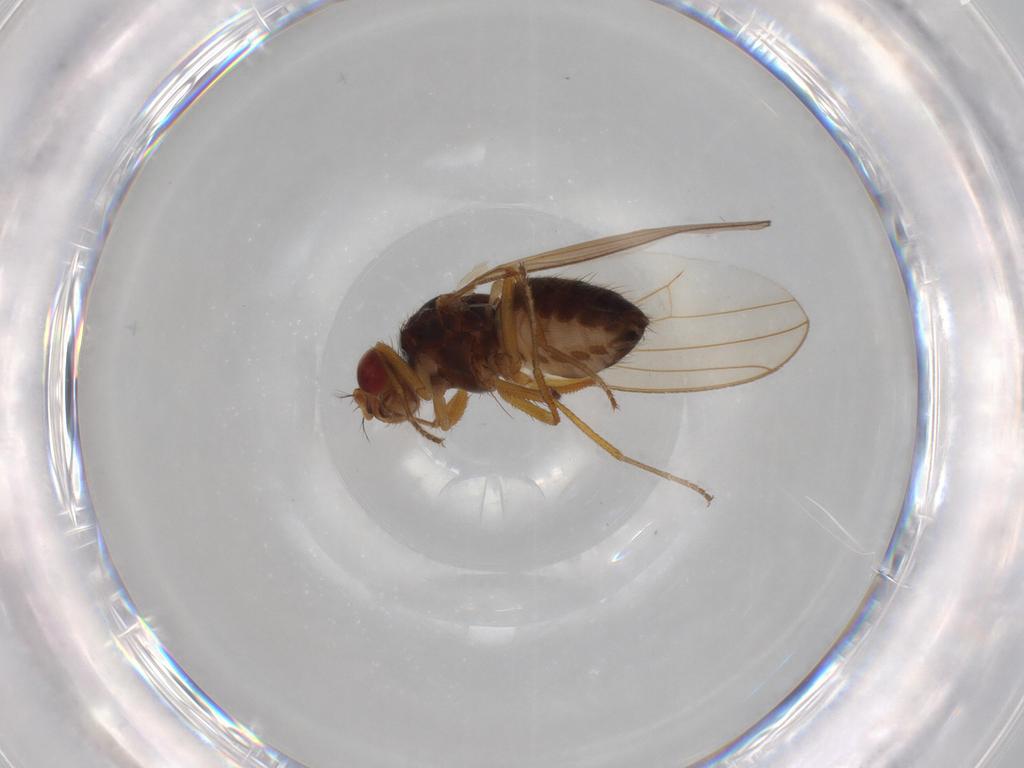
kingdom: Animalia
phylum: Arthropoda
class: Insecta
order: Diptera
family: Drosophilidae
